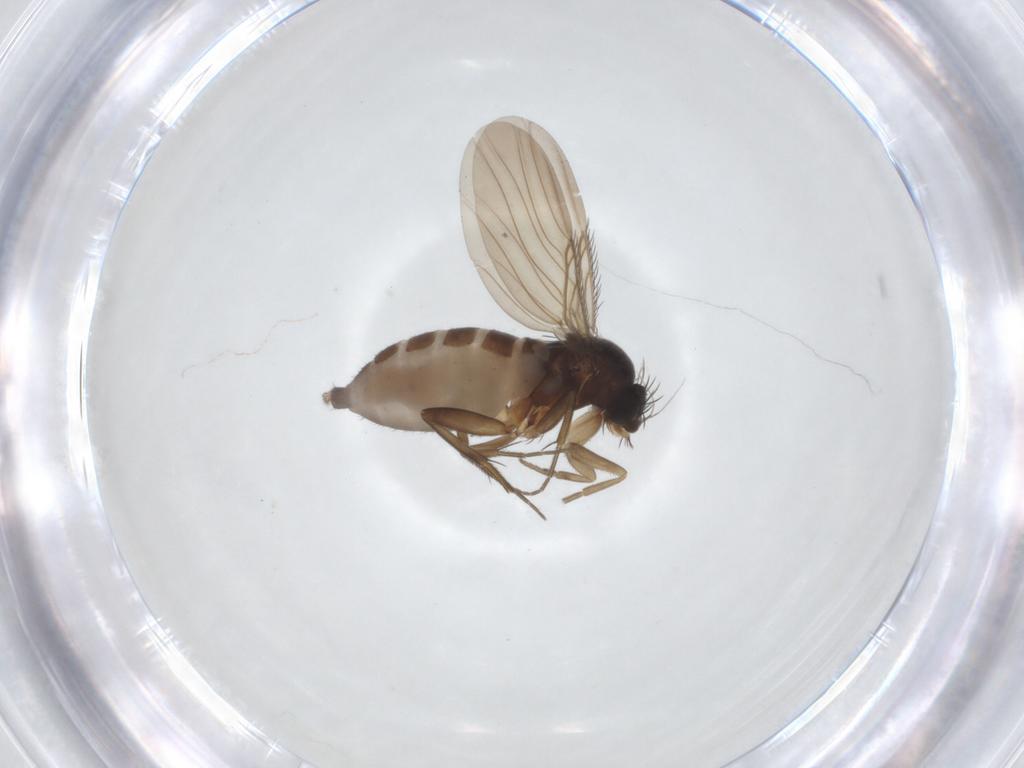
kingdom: Animalia
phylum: Arthropoda
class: Insecta
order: Diptera
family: Phoridae
